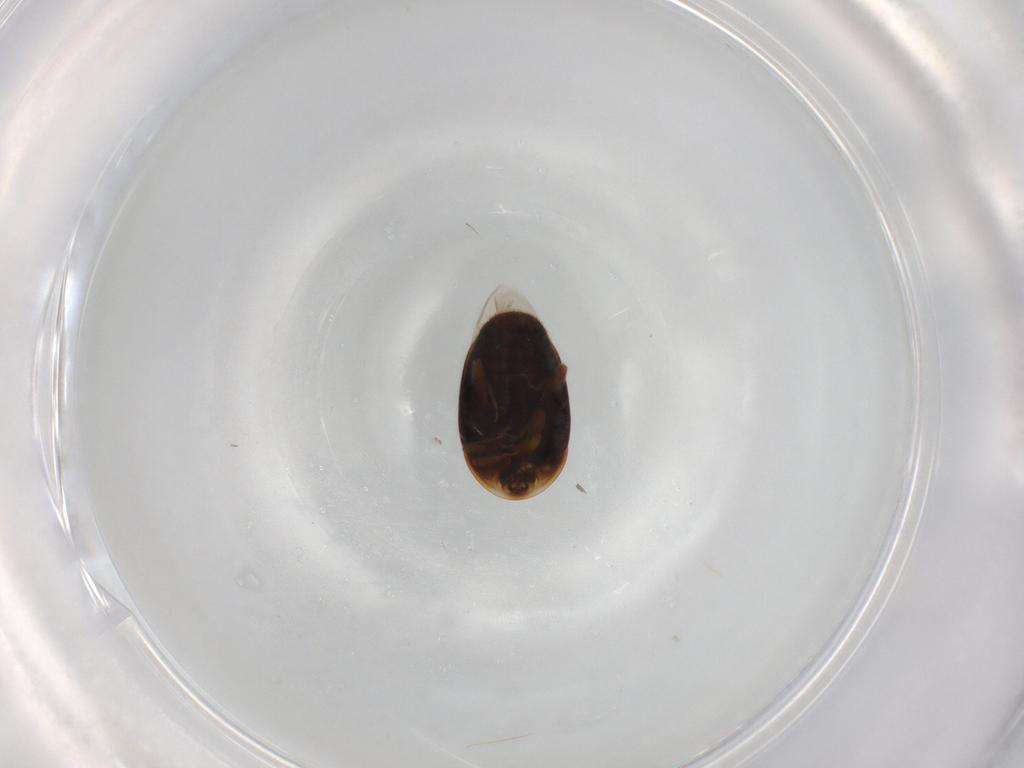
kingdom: Animalia
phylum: Arthropoda
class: Insecta
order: Coleoptera
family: Corylophidae
